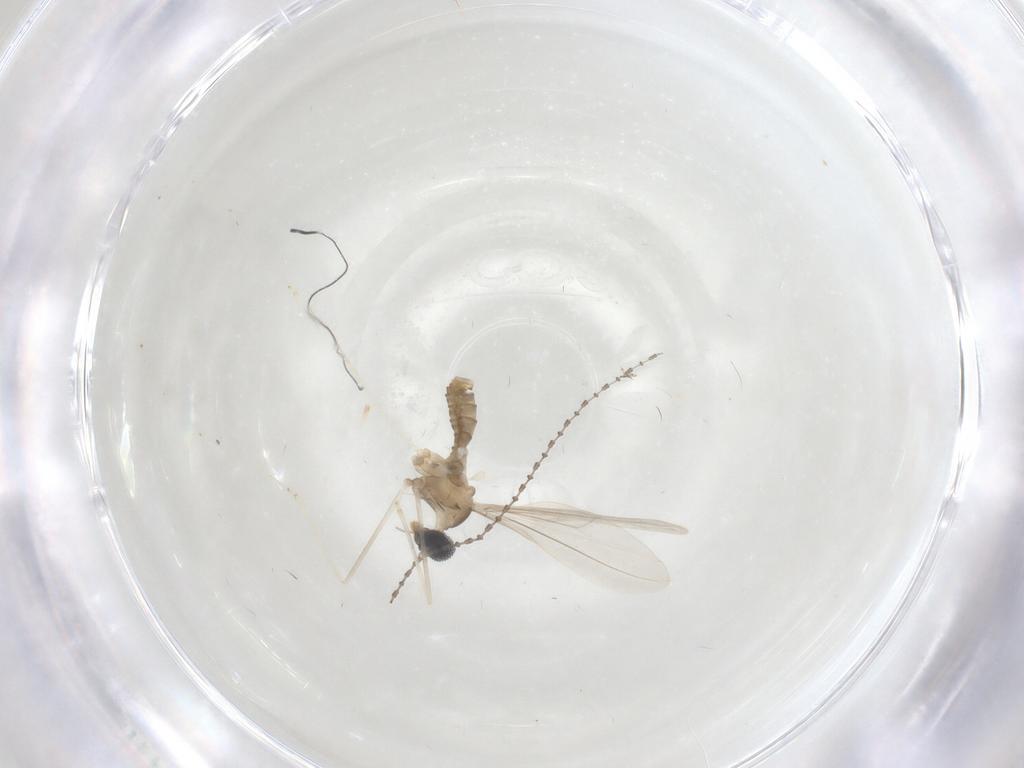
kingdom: Animalia
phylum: Arthropoda
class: Insecta
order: Diptera
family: Cecidomyiidae
